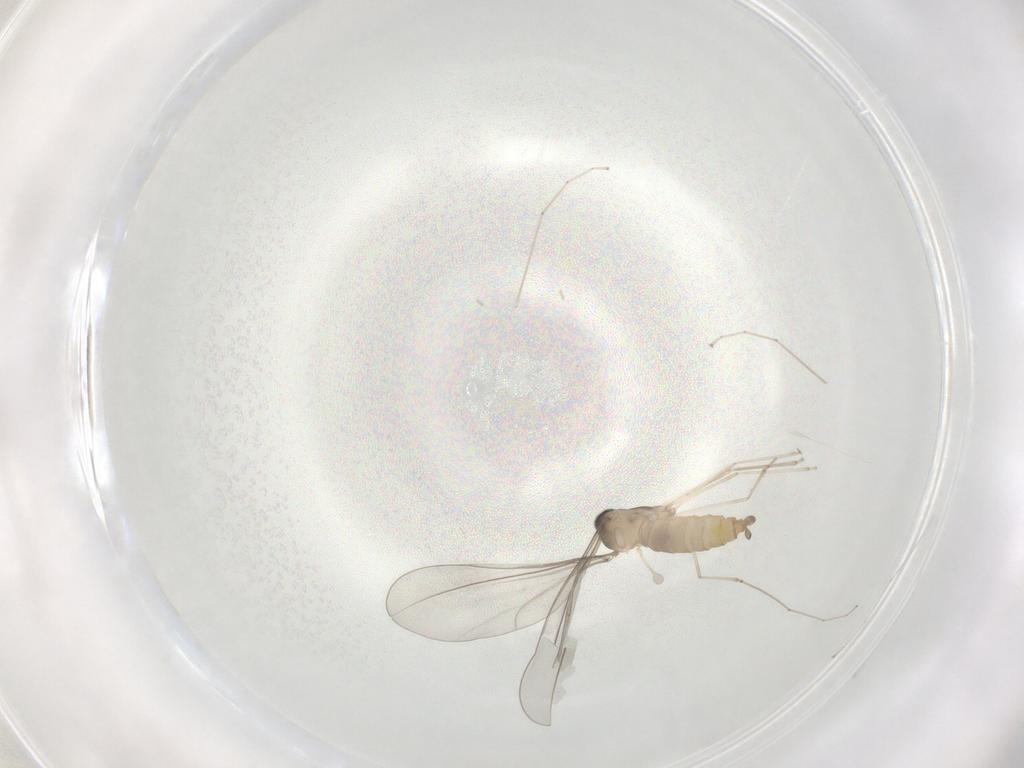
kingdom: Animalia
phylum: Arthropoda
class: Insecta
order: Diptera
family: Cecidomyiidae
